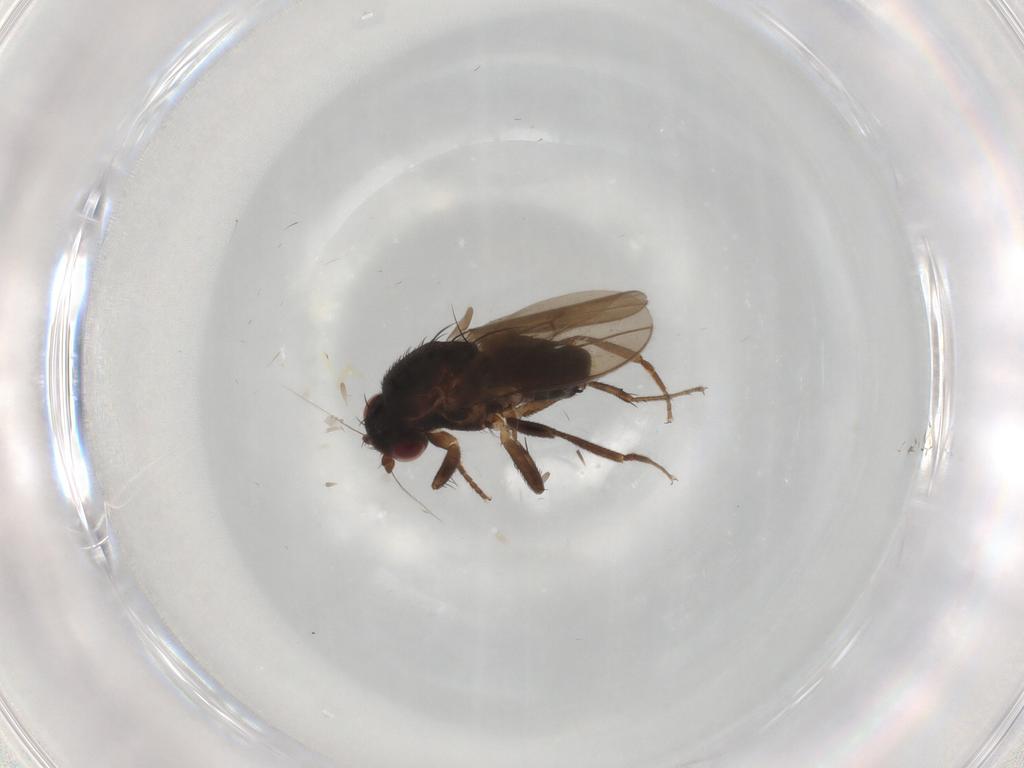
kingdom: Animalia
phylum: Arthropoda
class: Insecta
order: Diptera
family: Sphaeroceridae
